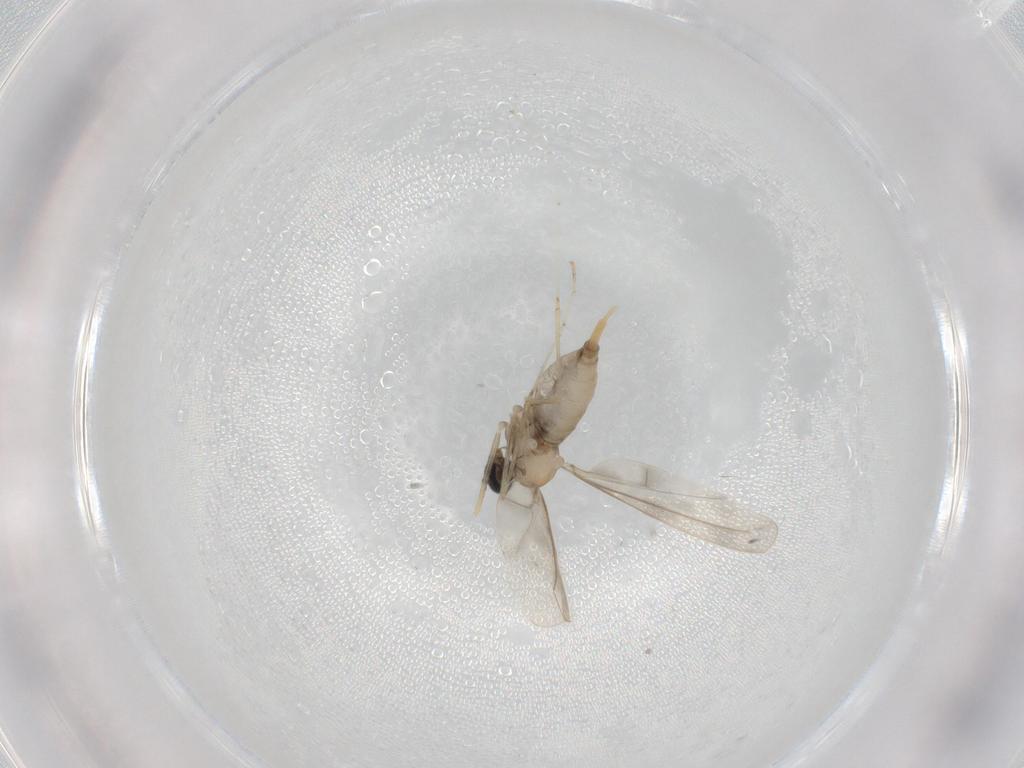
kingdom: Animalia
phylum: Arthropoda
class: Insecta
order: Diptera
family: Cecidomyiidae
